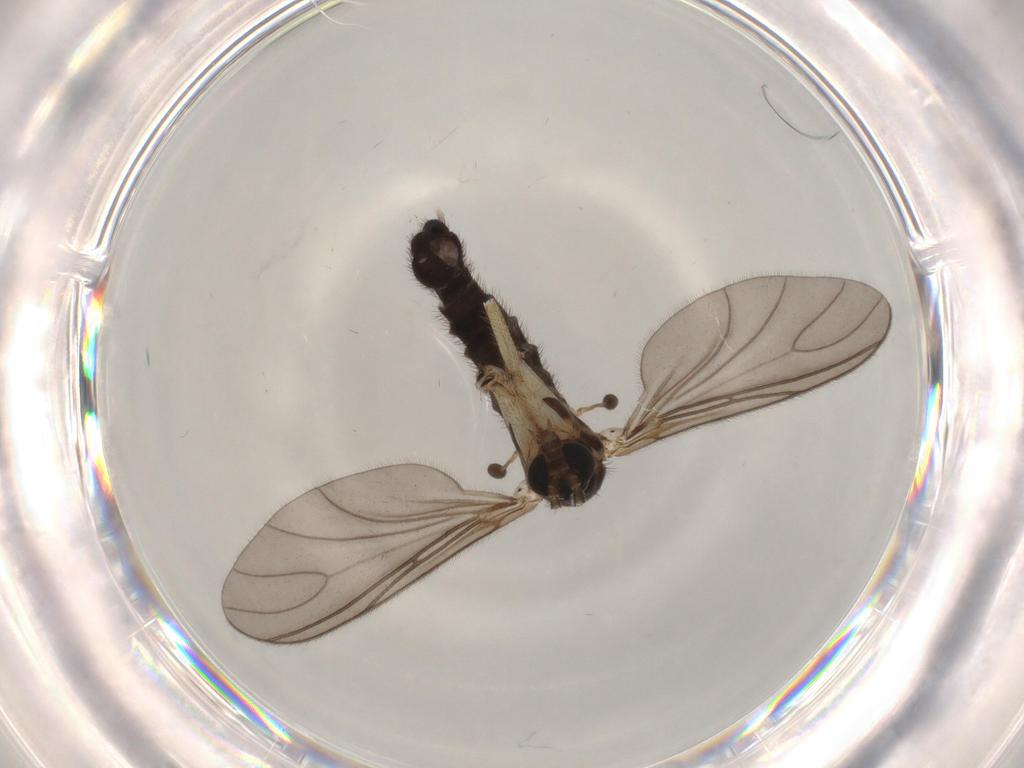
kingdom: Animalia
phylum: Arthropoda
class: Insecta
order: Diptera
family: Sciaridae
